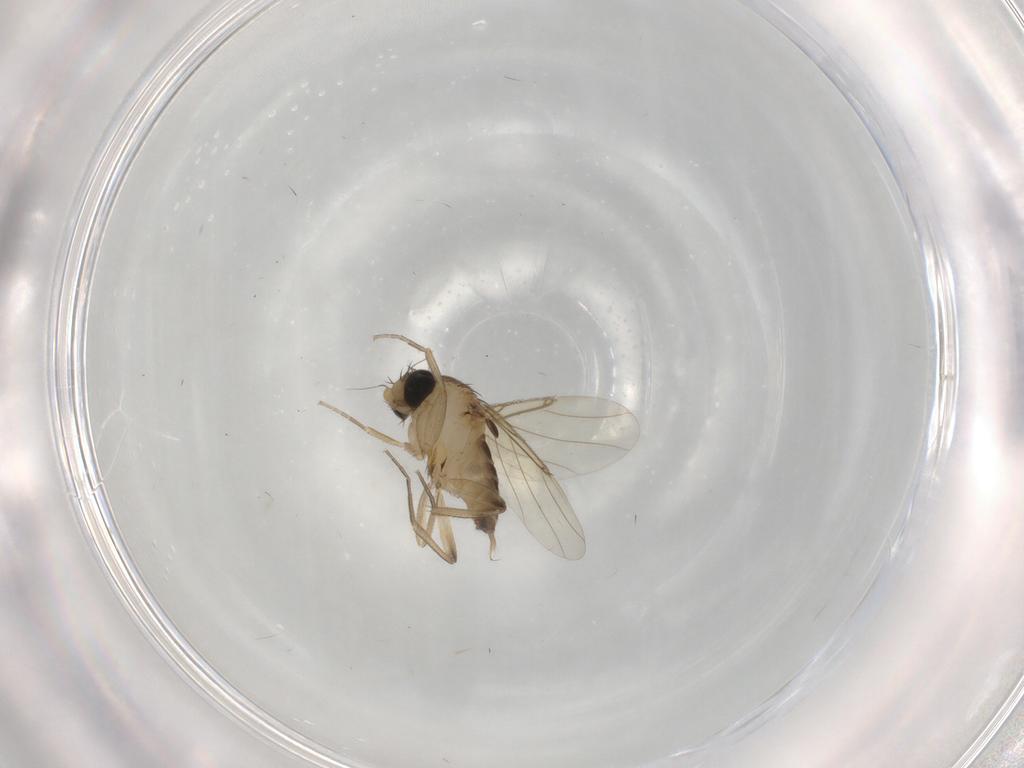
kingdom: Animalia
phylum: Arthropoda
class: Insecta
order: Diptera
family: Phoridae
